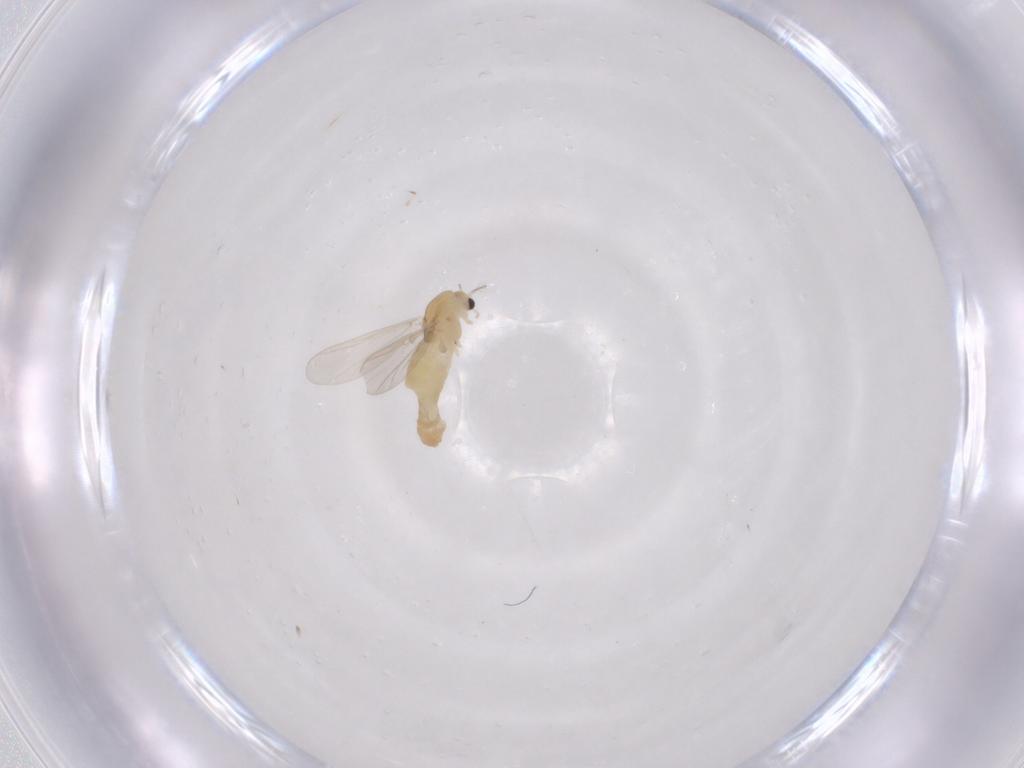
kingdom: Animalia
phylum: Arthropoda
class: Insecta
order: Diptera
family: Chironomidae
